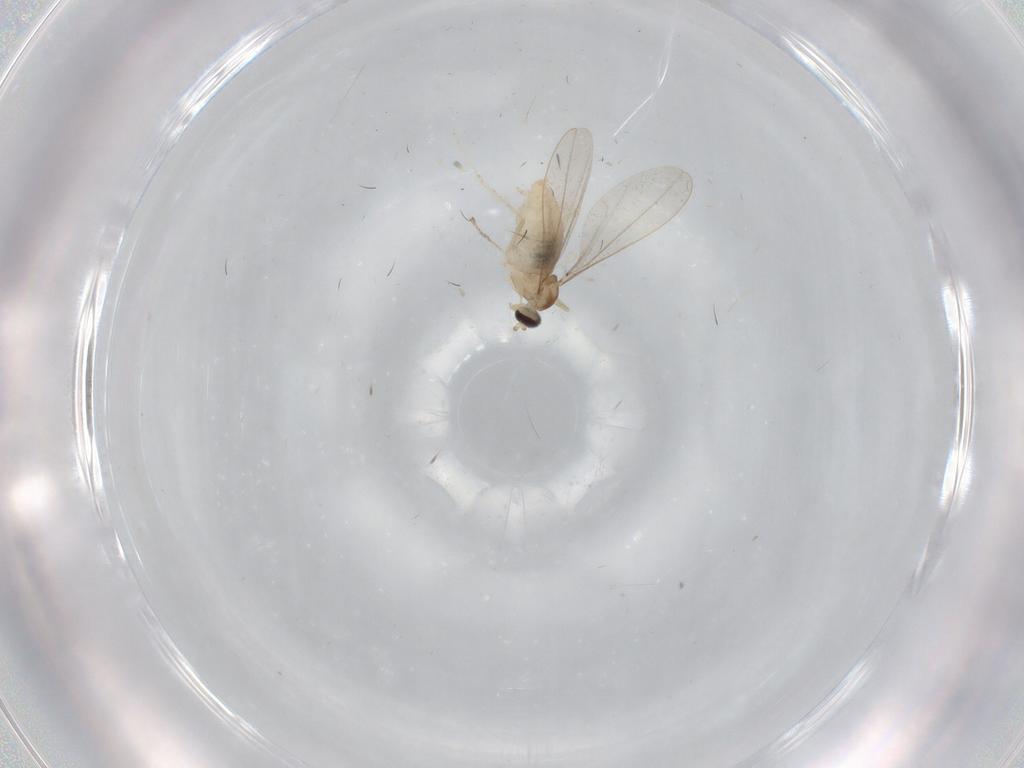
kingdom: Animalia
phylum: Arthropoda
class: Insecta
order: Diptera
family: Cecidomyiidae
